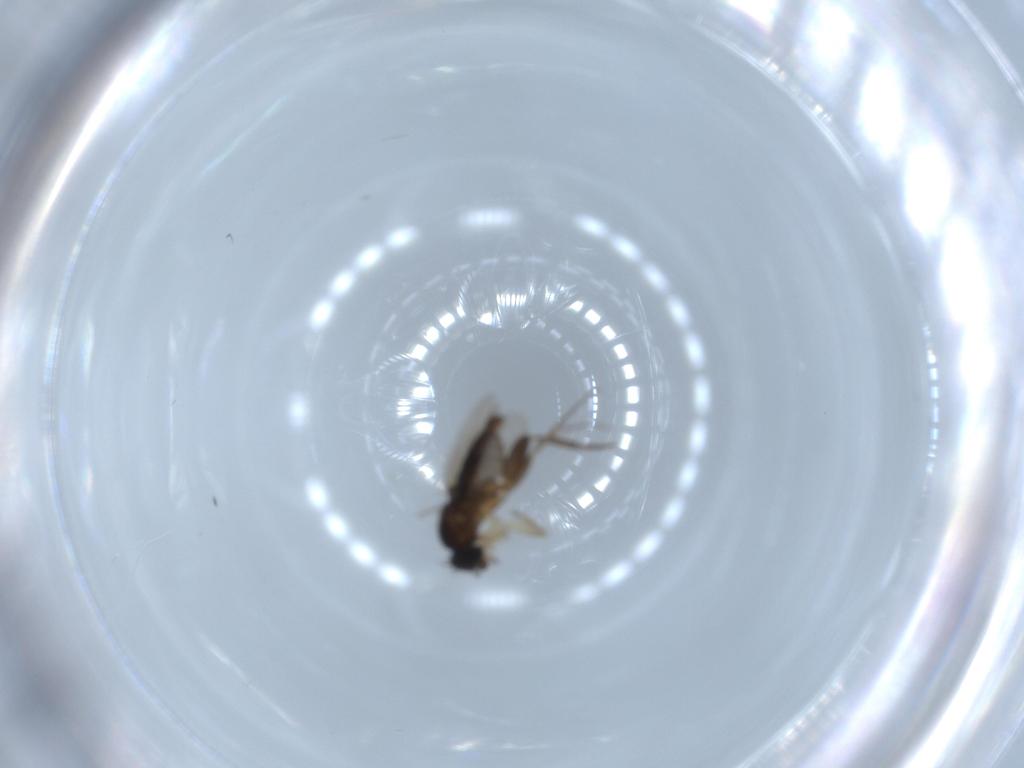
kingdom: Animalia
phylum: Arthropoda
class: Insecta
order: Diptera
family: Phoridae
